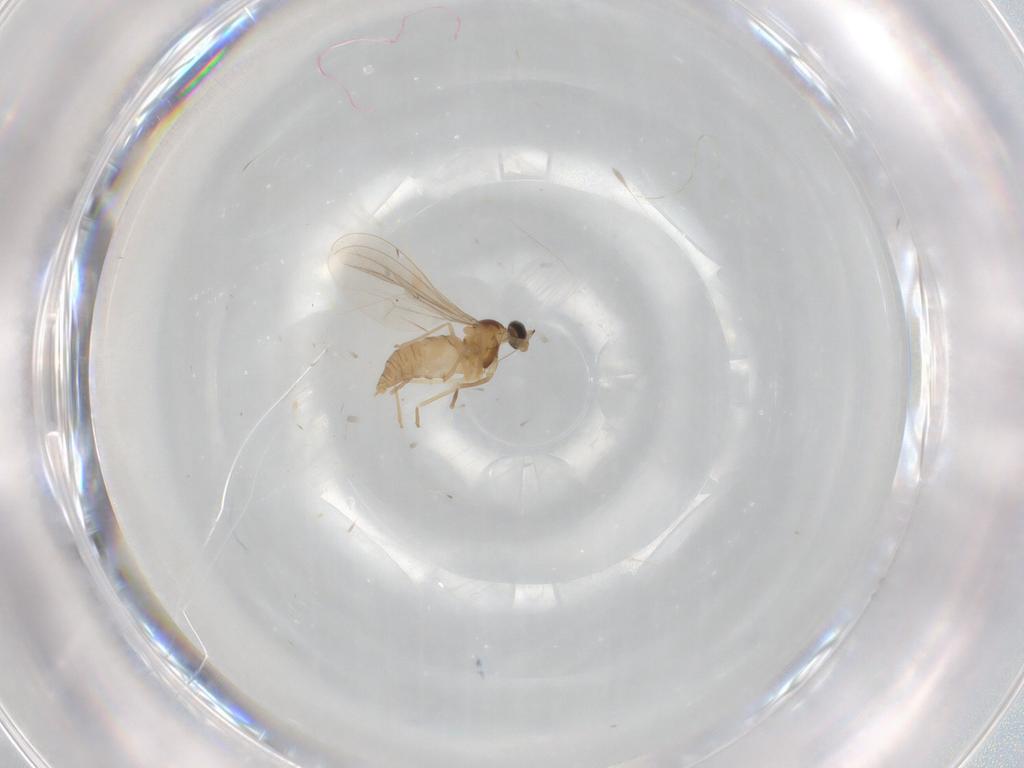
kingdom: Animalia
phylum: Arthropoda
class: Insecta
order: Diptera
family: Cecidomyiidae
